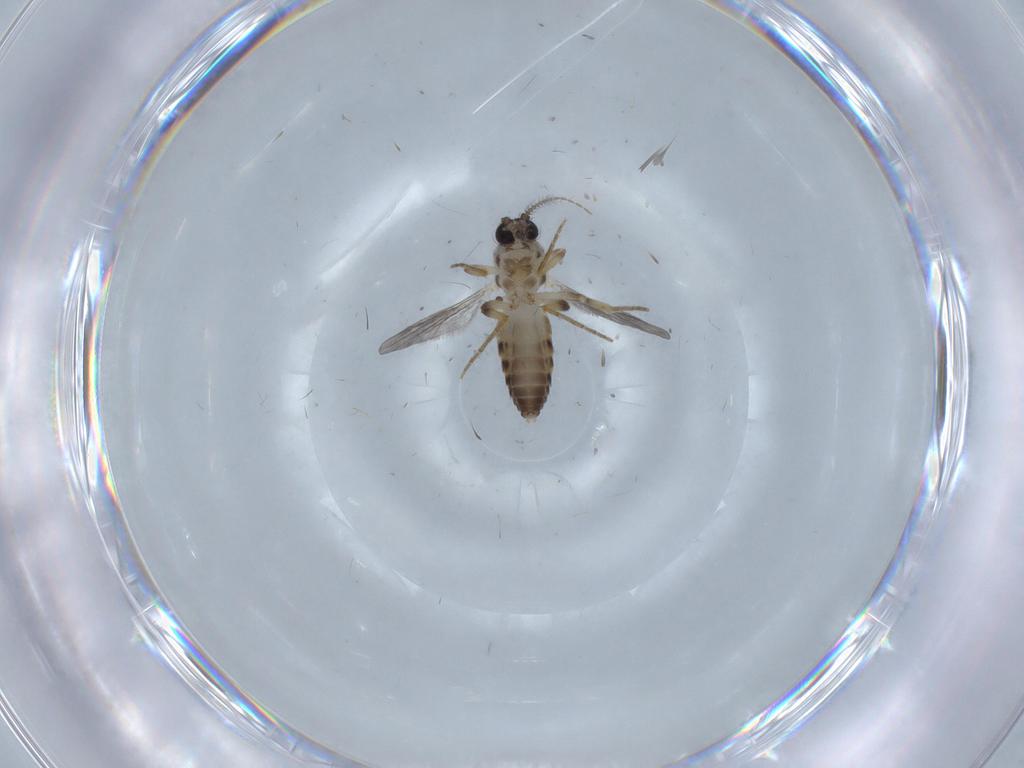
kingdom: Animalia
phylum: Arthropoda
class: Insecta
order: Diptera
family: Ceratopogonidae
